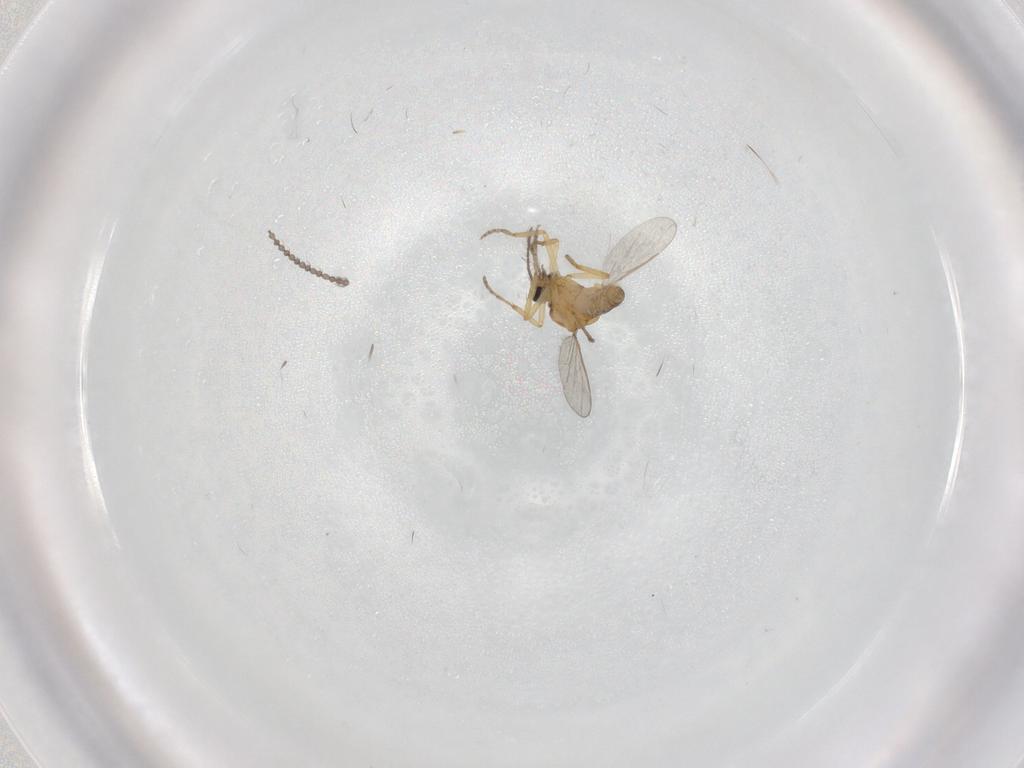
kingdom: Animalia
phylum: Arthropoda
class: Insecta
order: Diptera
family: Cecidomyiidae
